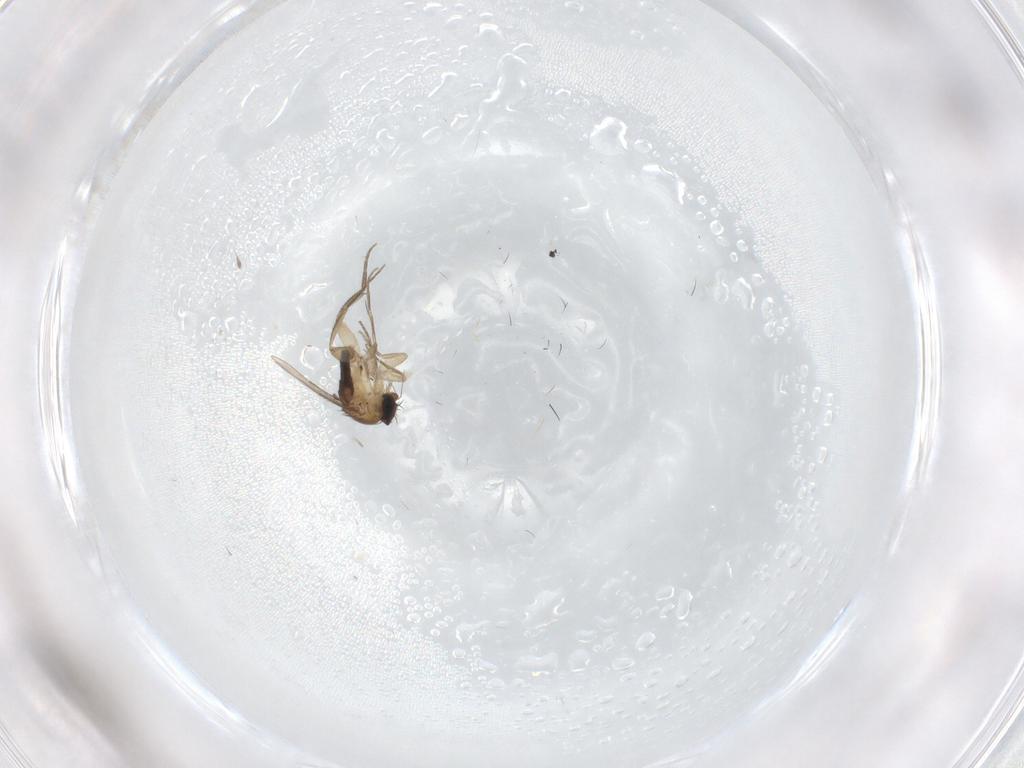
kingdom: Animalia
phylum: Arthropoda
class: Insecta
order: Diptera
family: Phoridae
